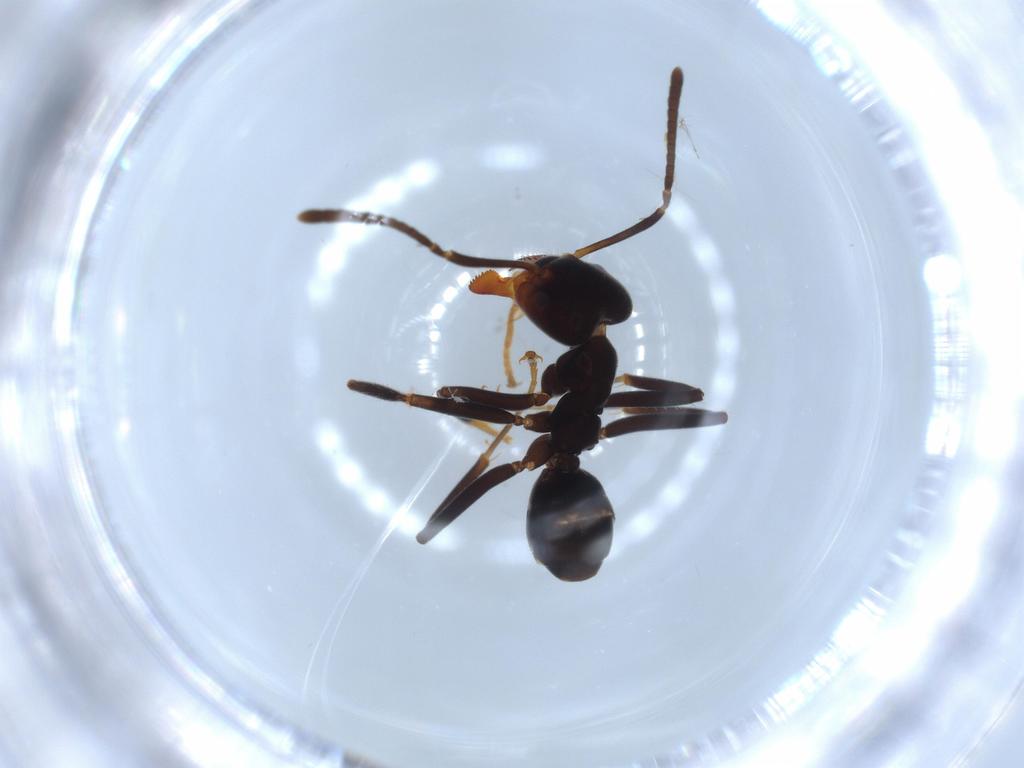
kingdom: Animalia
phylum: Arthropoda
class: Insecta
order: Hymenoptera
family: Formicidae
